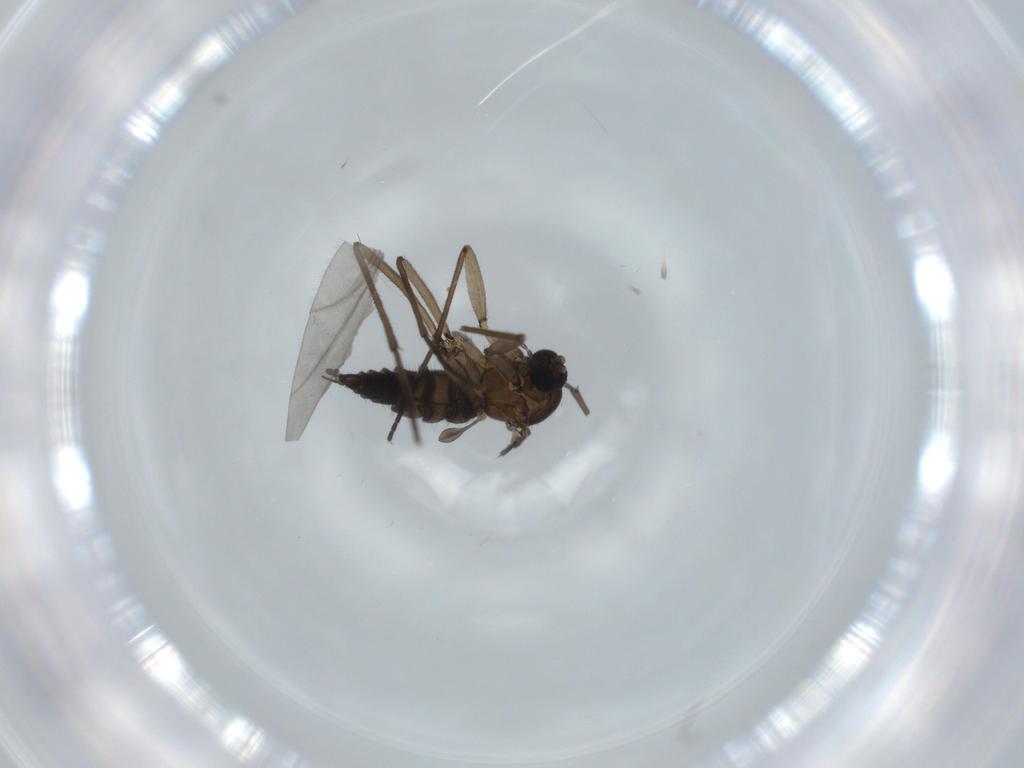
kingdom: Animalia
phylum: Arthropoda
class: Insecta
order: Diptera
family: Sciaridae
